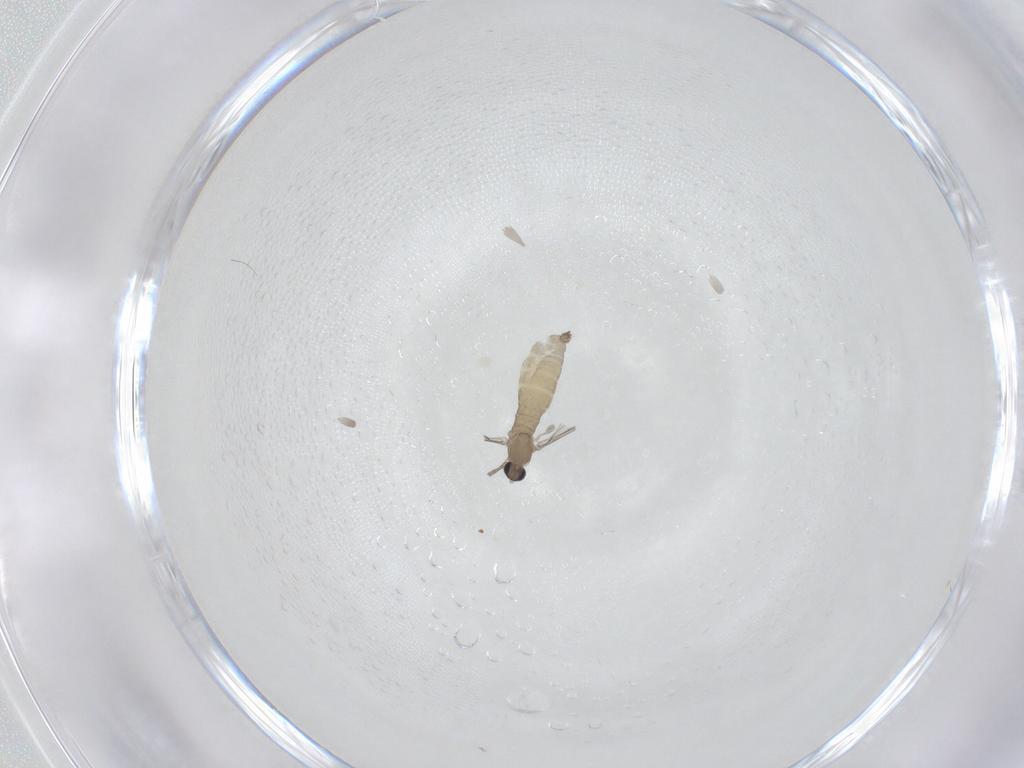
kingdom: Animalia
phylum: Arthropoda
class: Insecta
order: Diptera
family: Cecidomyiidae
